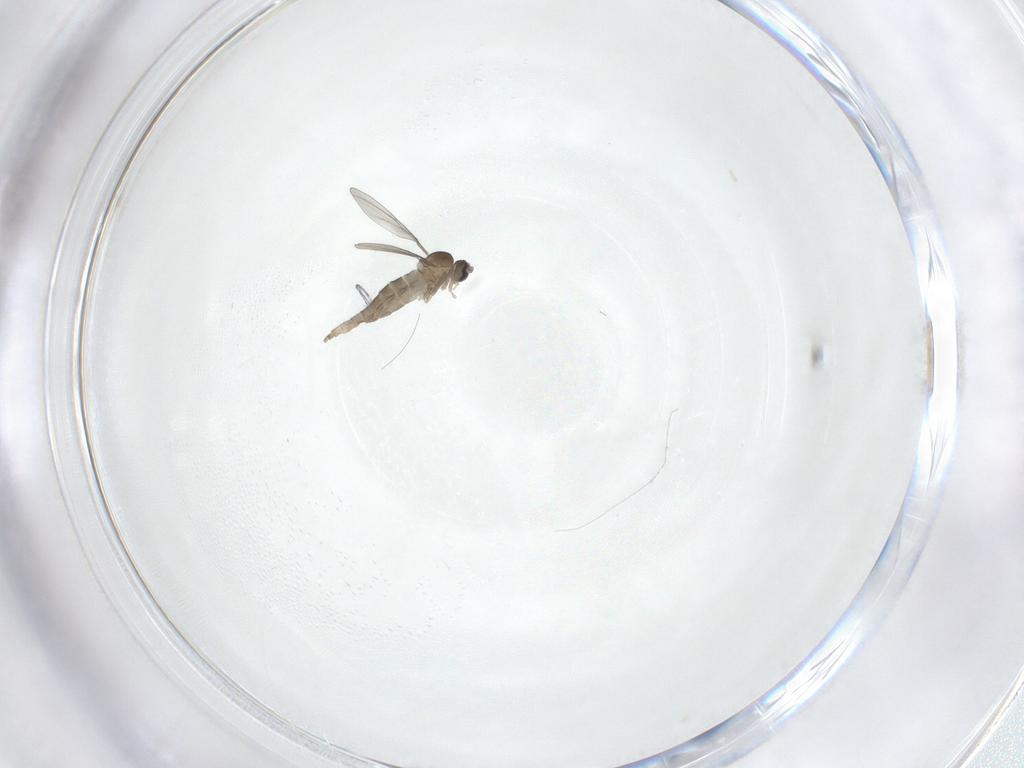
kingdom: Animalia
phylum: Arthropoda
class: Insecta
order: Diptera
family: Cecidomyiidae
